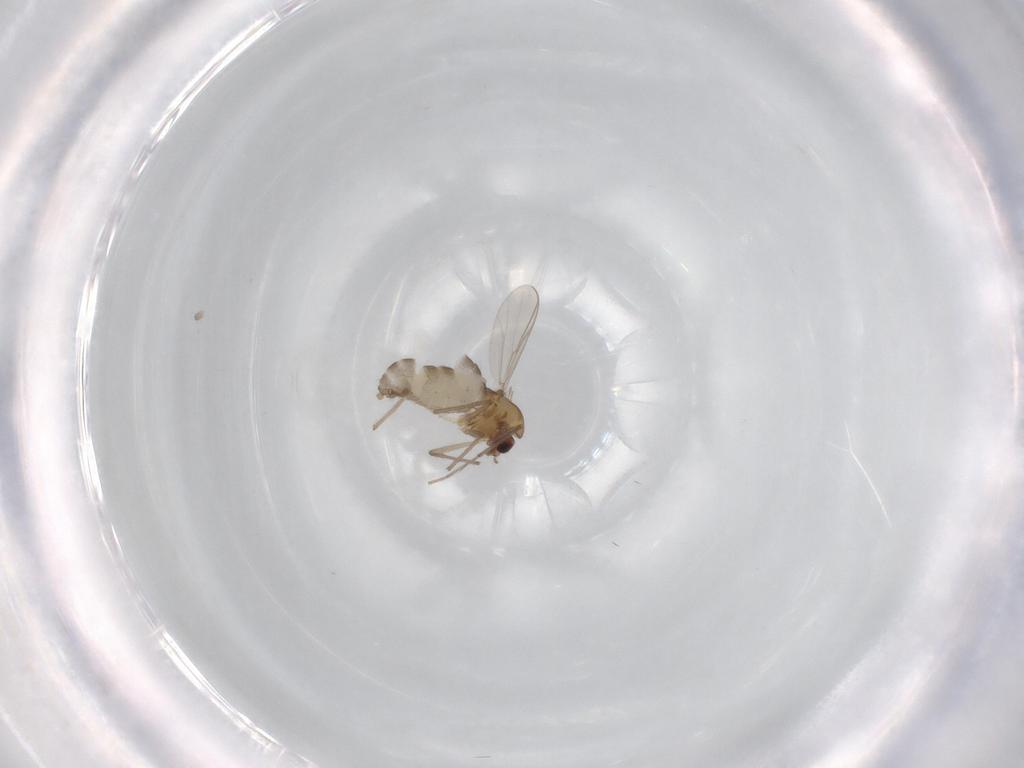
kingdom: Animalia
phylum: Arthropoda
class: Insecta
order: Diptera
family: Chironomidae
